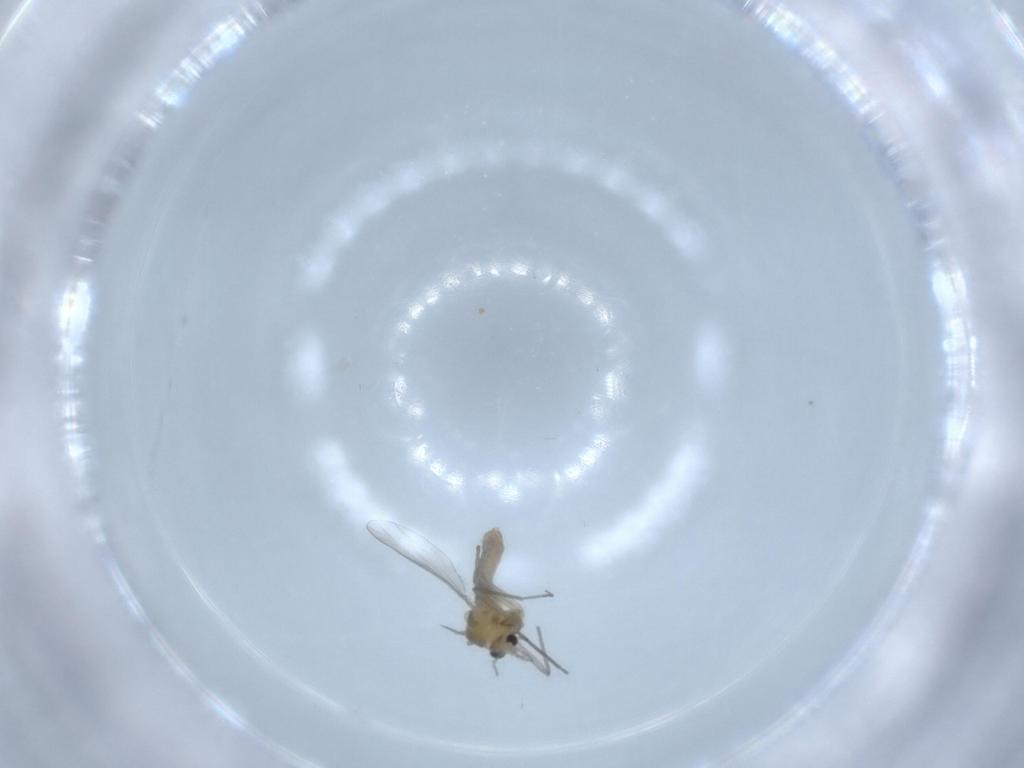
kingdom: Animalia
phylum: Arthropoda
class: Insecta
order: Diptera
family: Chironomidae
